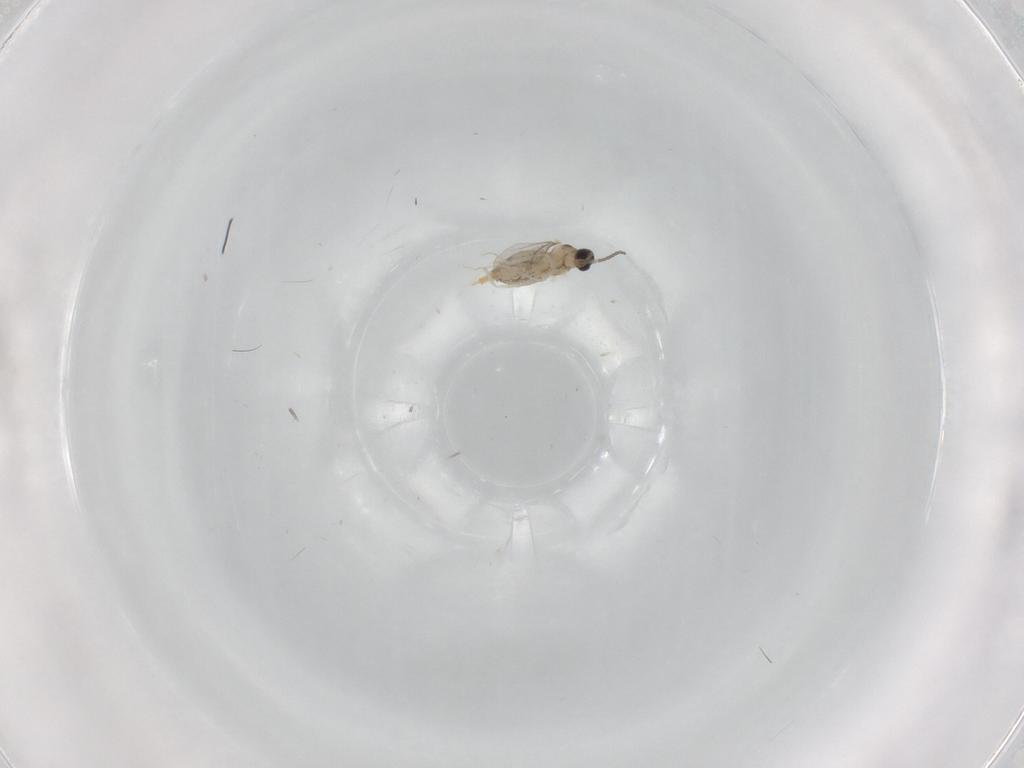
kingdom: Animalia
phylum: Arthropoda
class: Insecta
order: Diptera
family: Cecidomyiidae
